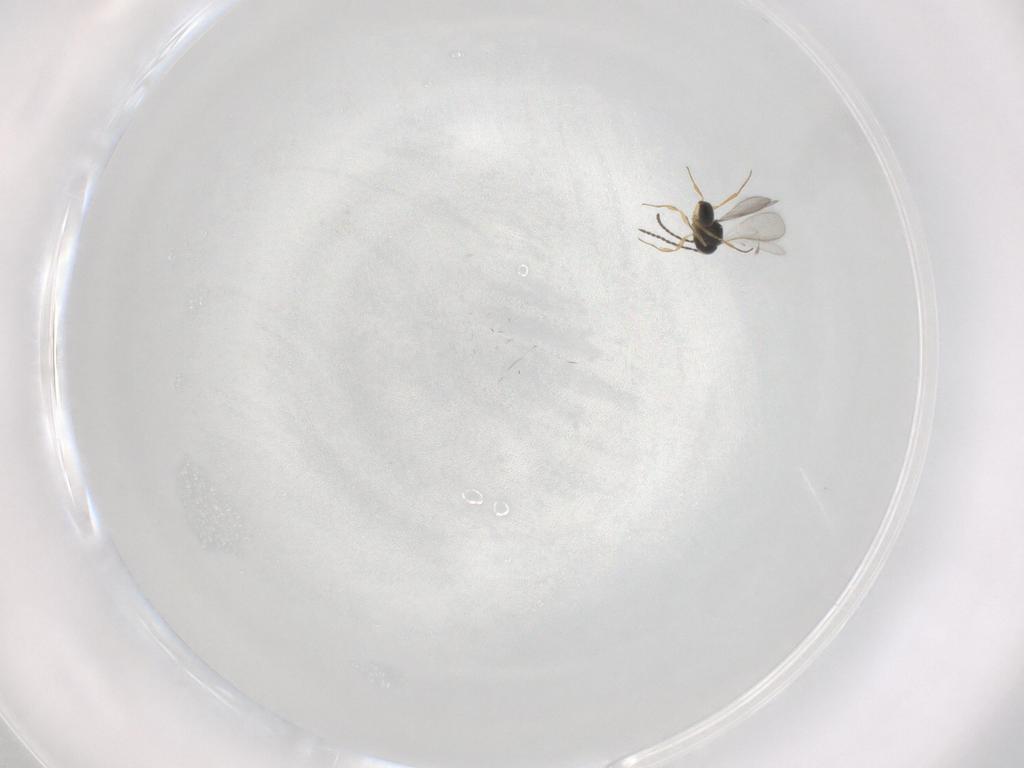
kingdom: Animalia
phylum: Arthropoda
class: Insecta
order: Hymenoptera
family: Scelionidae
